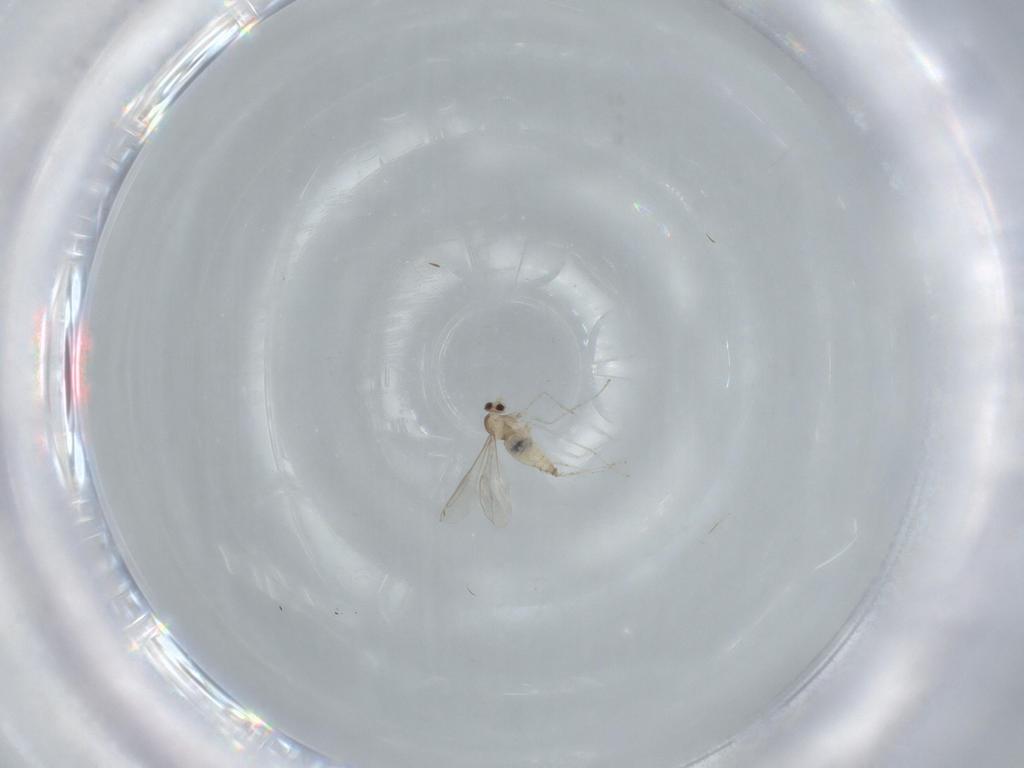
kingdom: Animalia
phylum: Arthropoda
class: Insecta
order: Diptera
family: Cecidomyiidae
